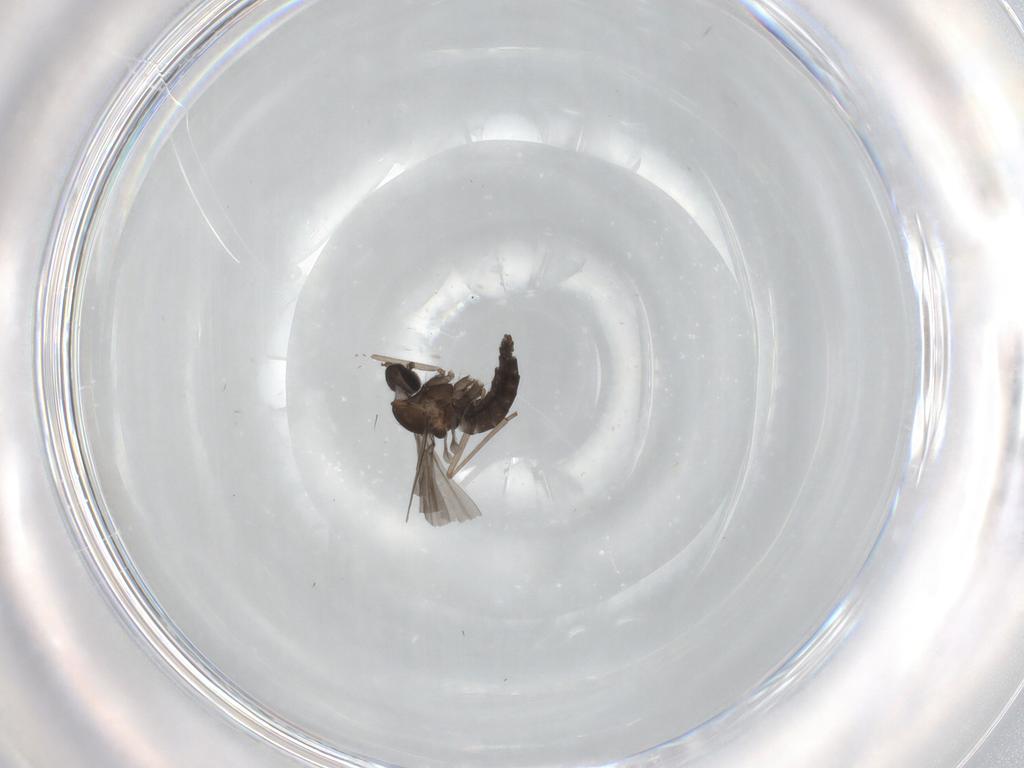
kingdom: Animalia
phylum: Arthropoda
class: Insecta
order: Diptera
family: Cecidomyiidae
